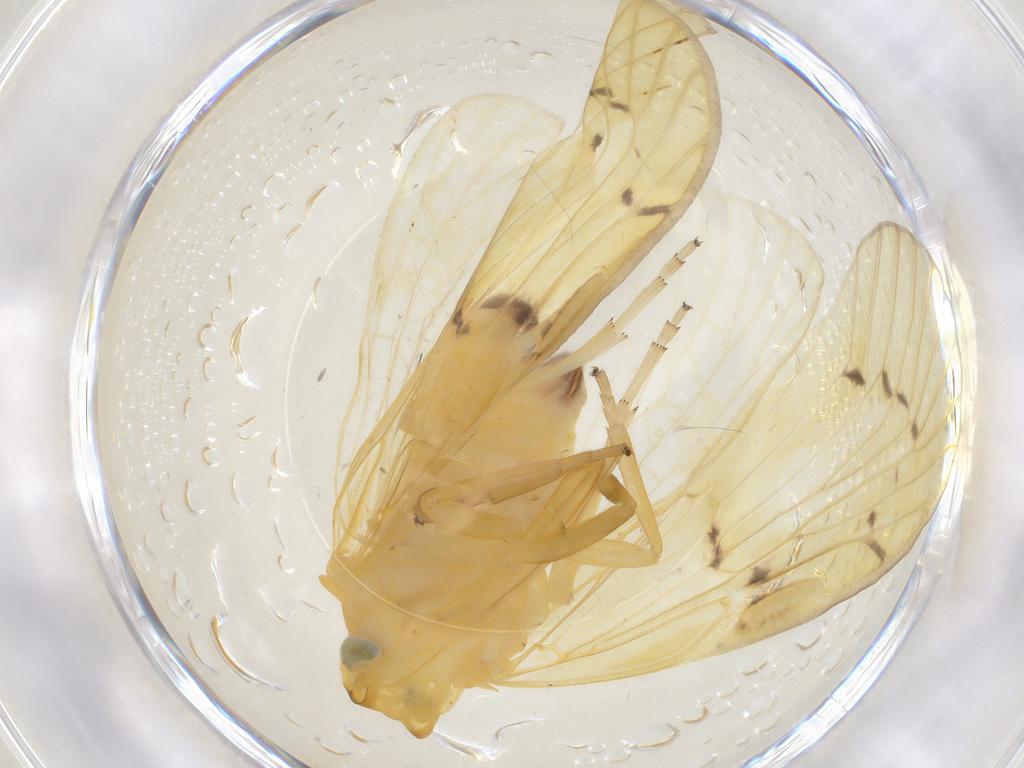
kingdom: Animalia
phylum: Arthropoda
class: Insecta
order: Hemiptera
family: Cixiidae
